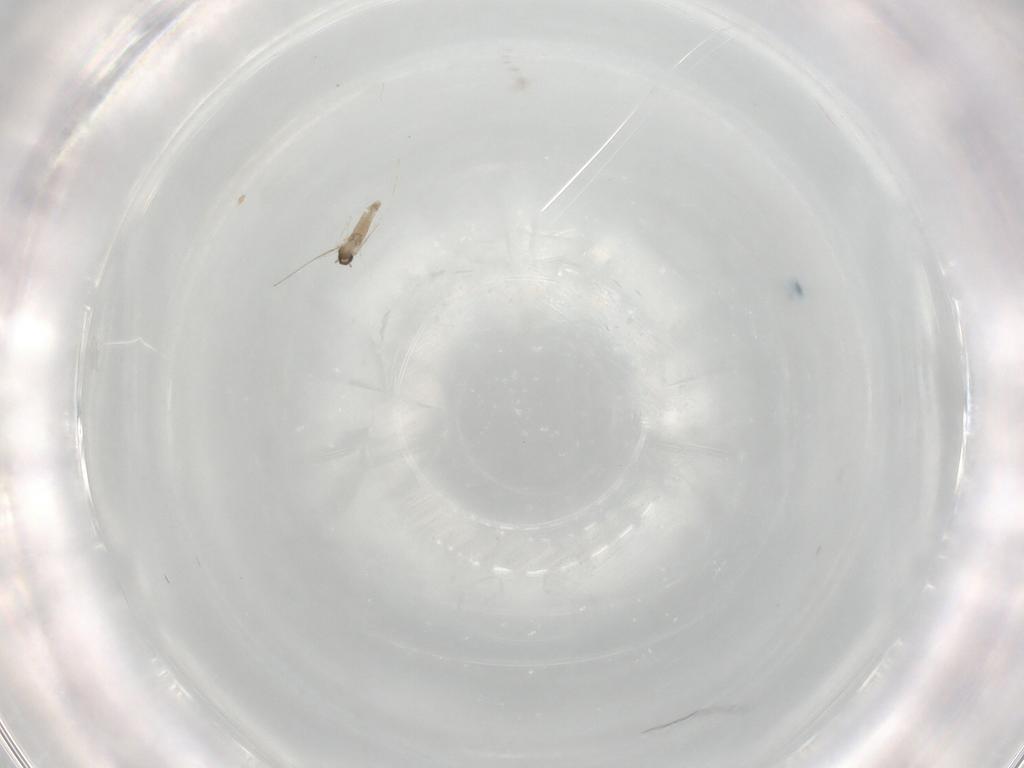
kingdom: Animalia
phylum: Arthropoda
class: Insecta
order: Diptera
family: Micropezidae
